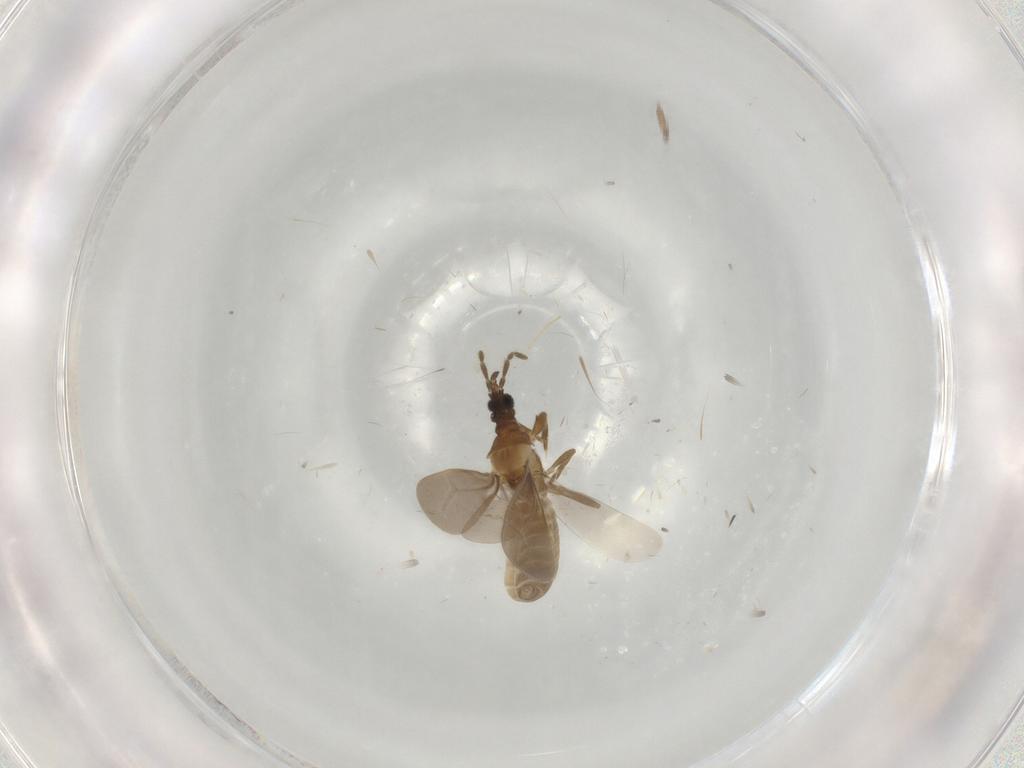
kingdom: Animalia
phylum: Arthropoda
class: Insecta
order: Hemiptera
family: Enicocephalidae
